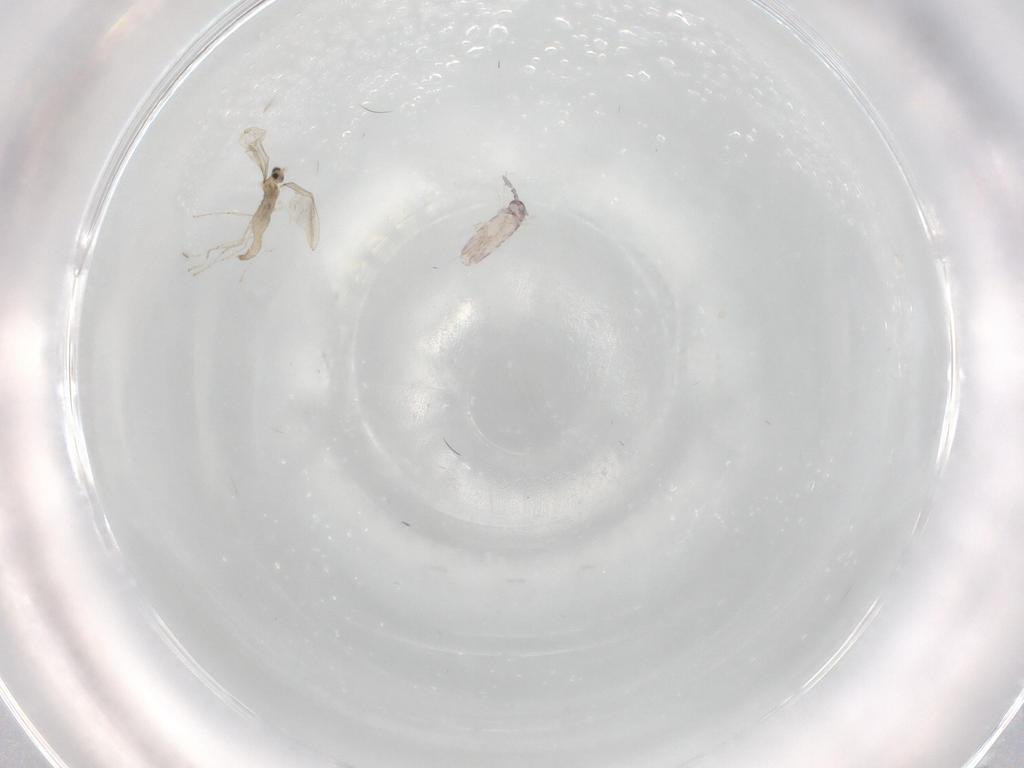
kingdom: Animalia
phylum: Arthropoda
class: Insecta
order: Diptera
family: Cecidomyiidae
